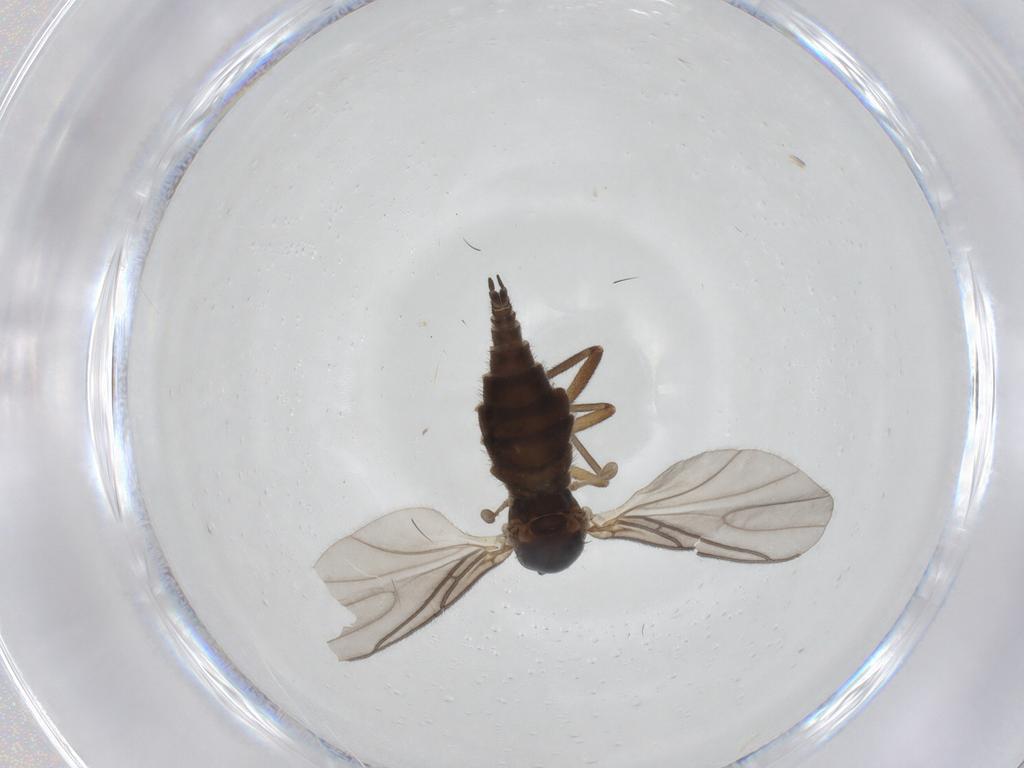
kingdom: Animalia
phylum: Arthropoda
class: Insecta
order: Diptera
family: Sciaridae
